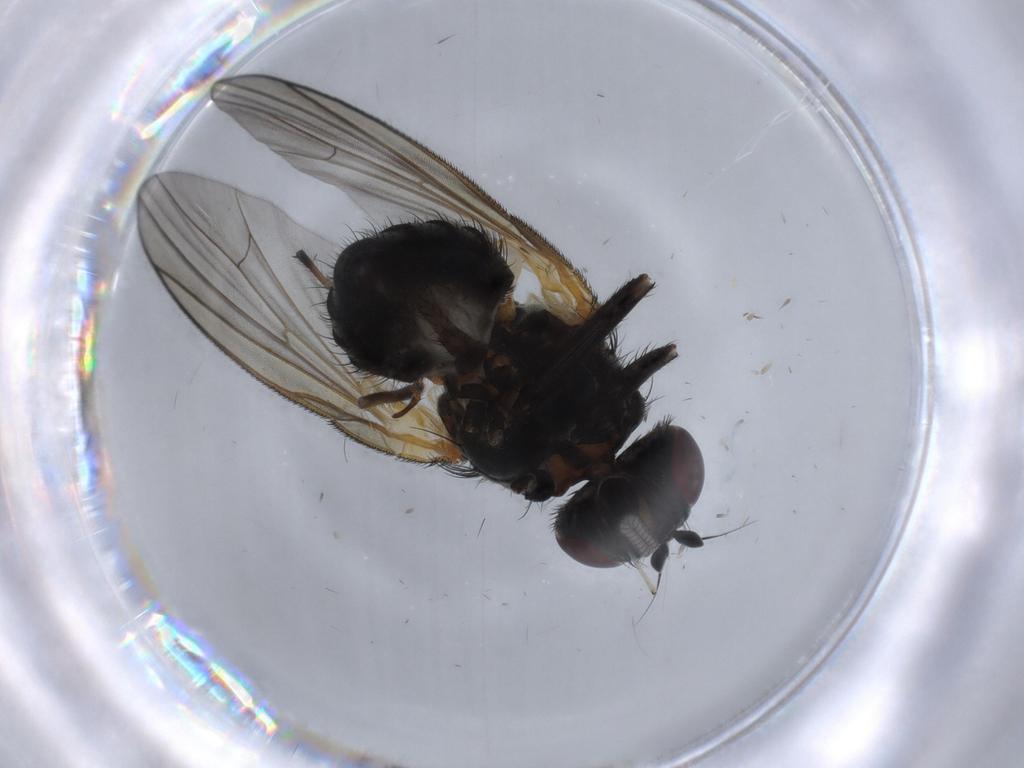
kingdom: Animalia
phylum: Arthropoda
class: Insecta
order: Diptera
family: Chironomidae
